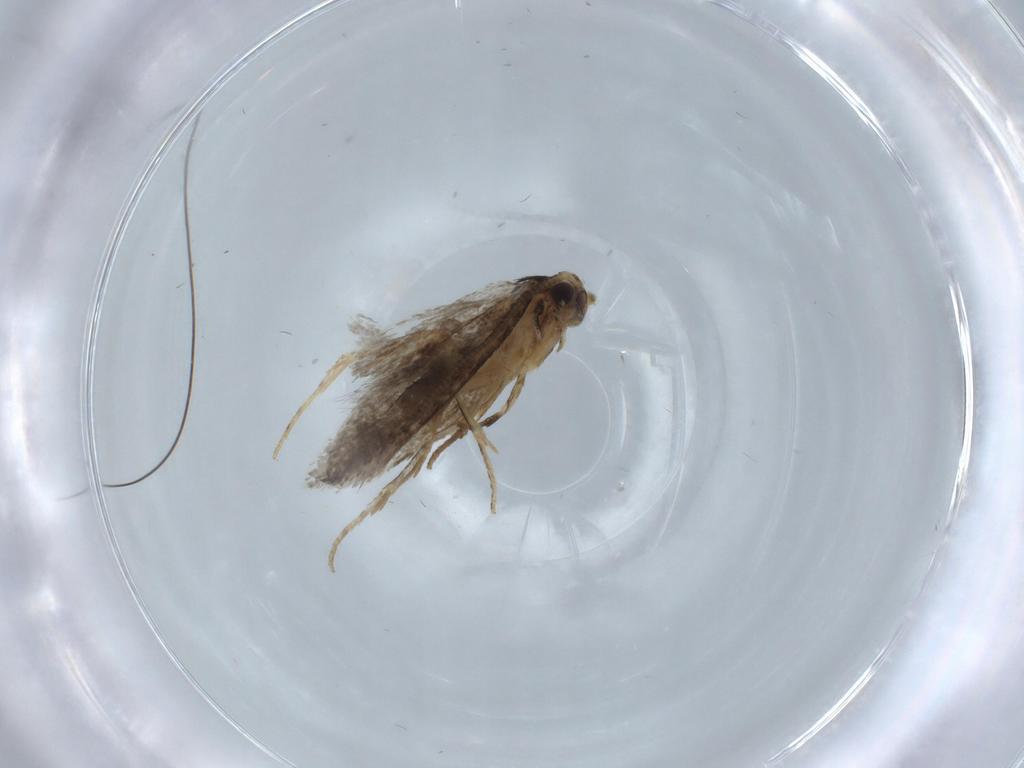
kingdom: Animalia
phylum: Arthropoda
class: Insecta
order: Lepidoptera
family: Tineidae
